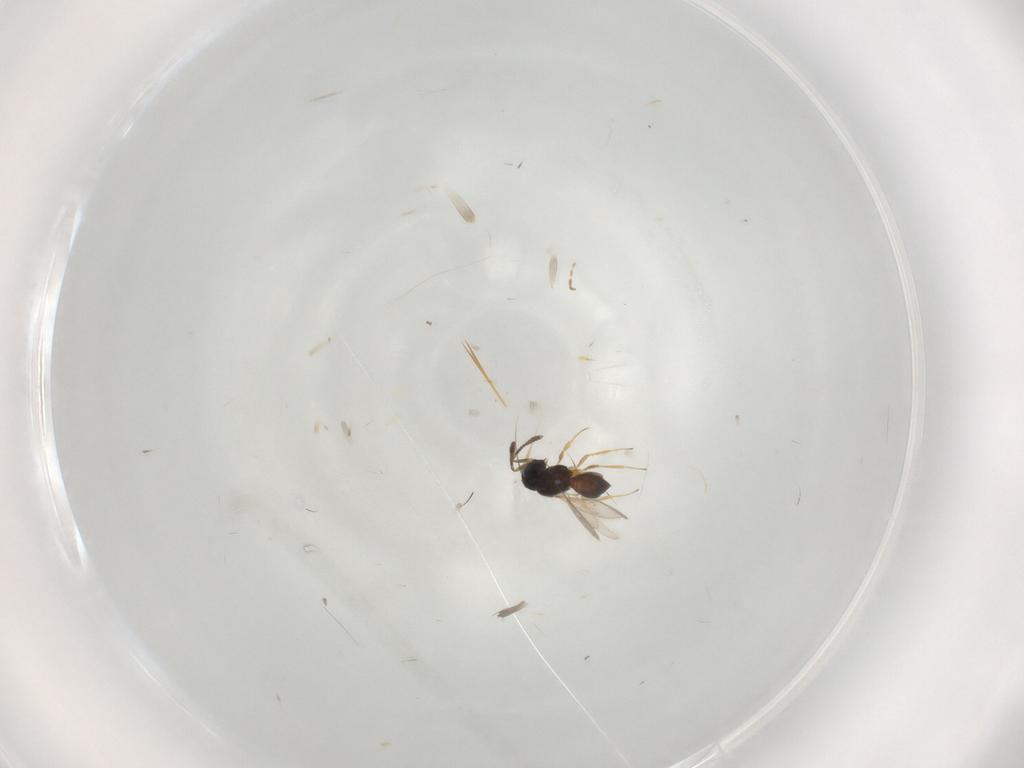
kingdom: Animalia
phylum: Arthropoda
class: Insecta
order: Hymenoptera
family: Scelionidae
